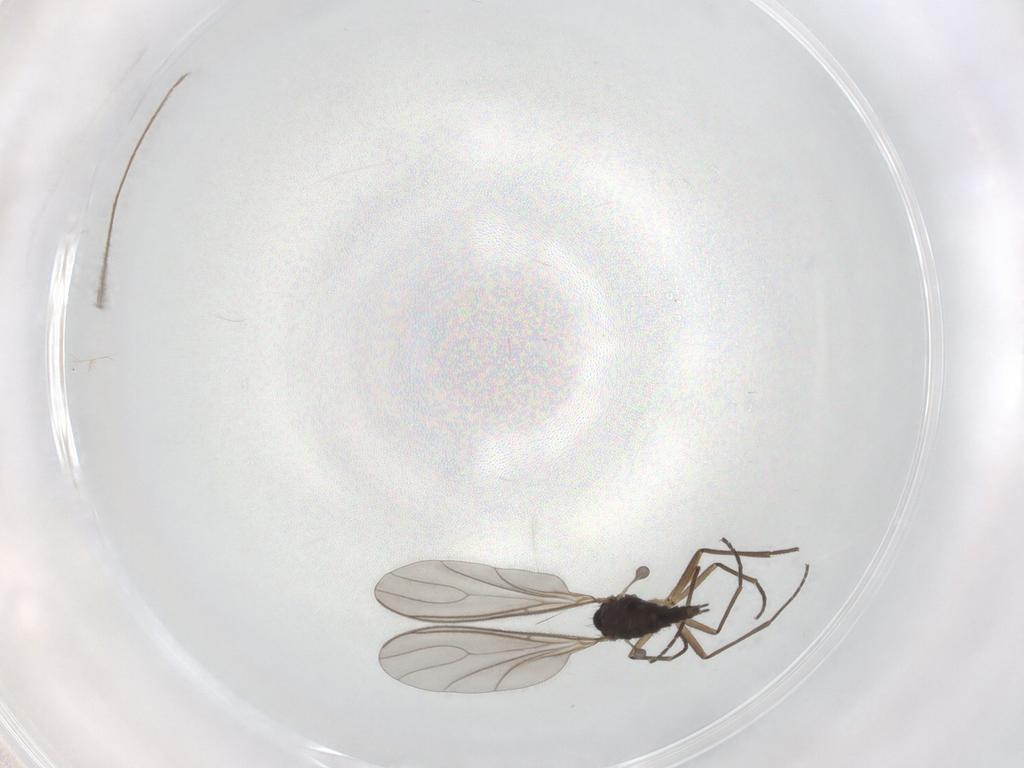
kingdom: Animalia
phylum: Arthropoda
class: Insecta
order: Diptera
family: Sciaridae
